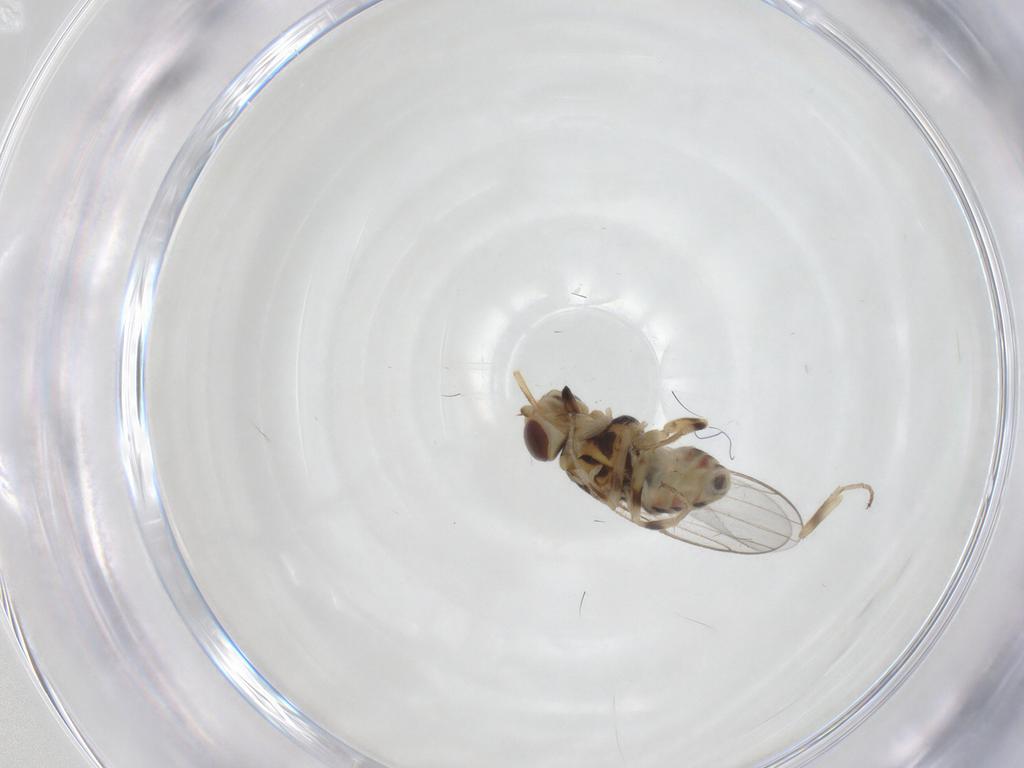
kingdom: Animalia
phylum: Arthropoda
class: Insecta
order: Diptera
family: Chloropidae
